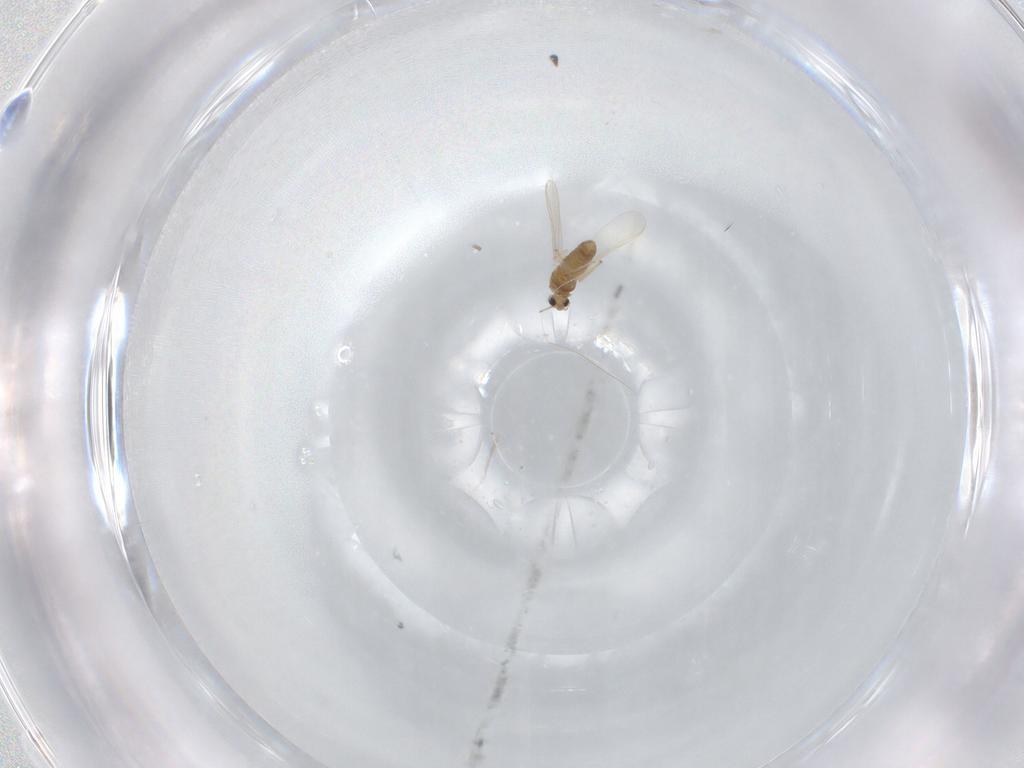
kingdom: Animalia
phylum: Arthropoda
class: Insecta
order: Diptera
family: Chironomidae
